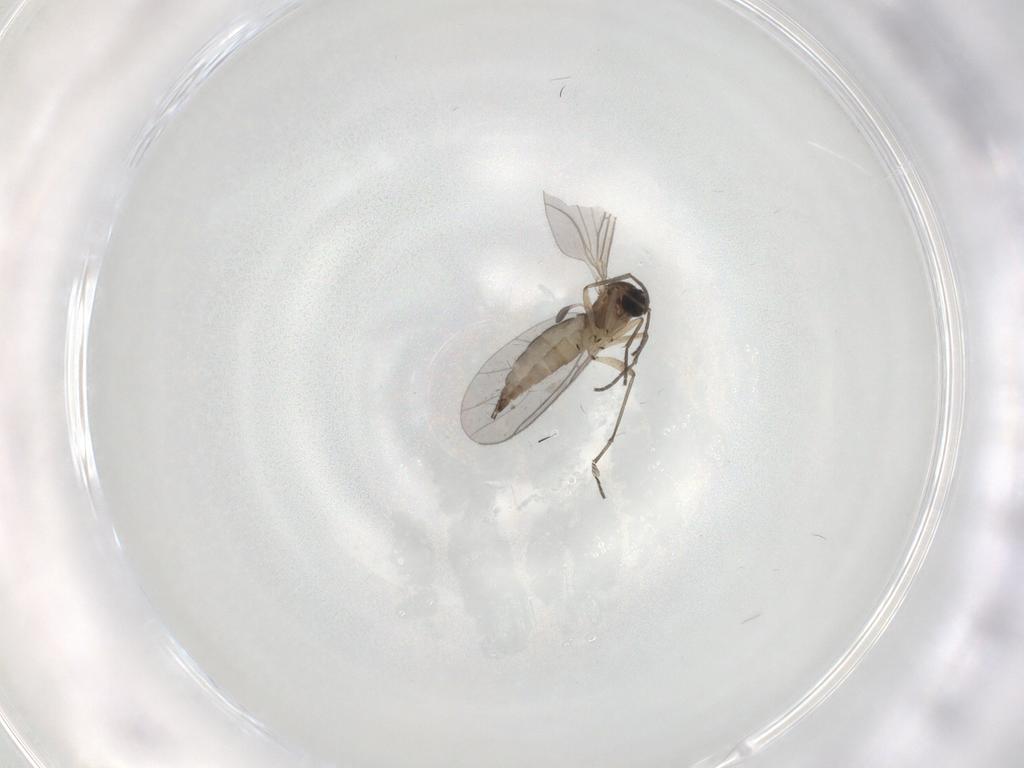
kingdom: Animalia
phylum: Arthropoda
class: Insecta
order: Diptera
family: Sciaridae
